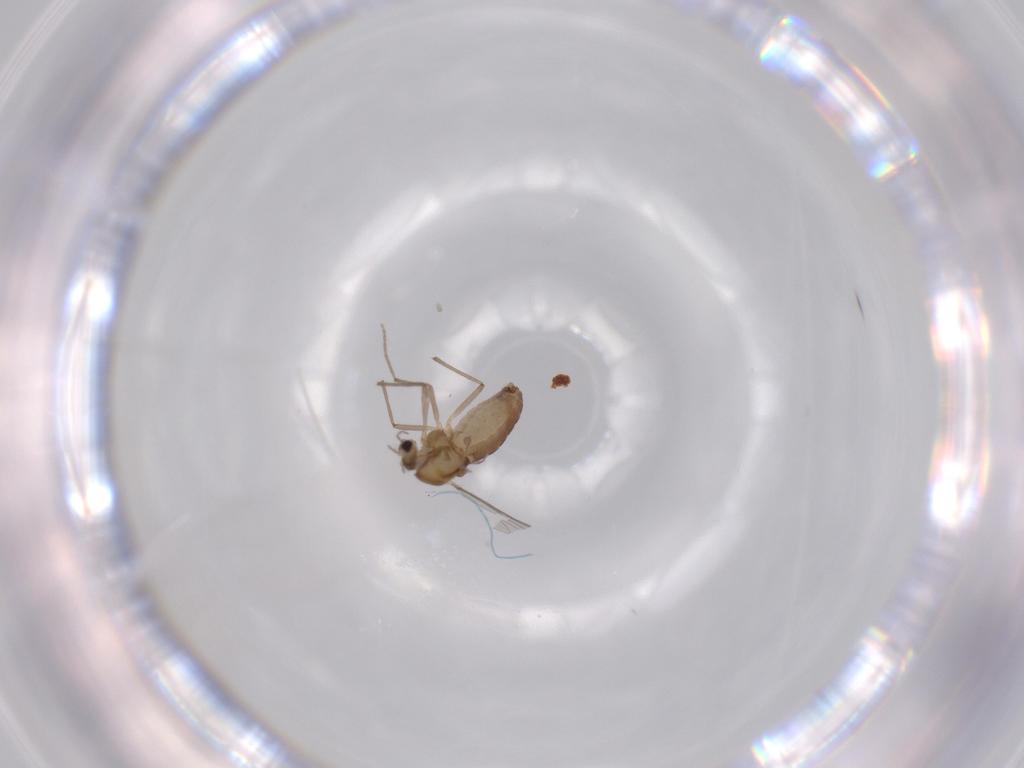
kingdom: Animalia
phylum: Arthropoda
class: Insecta
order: Diptera
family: Chironomidae
